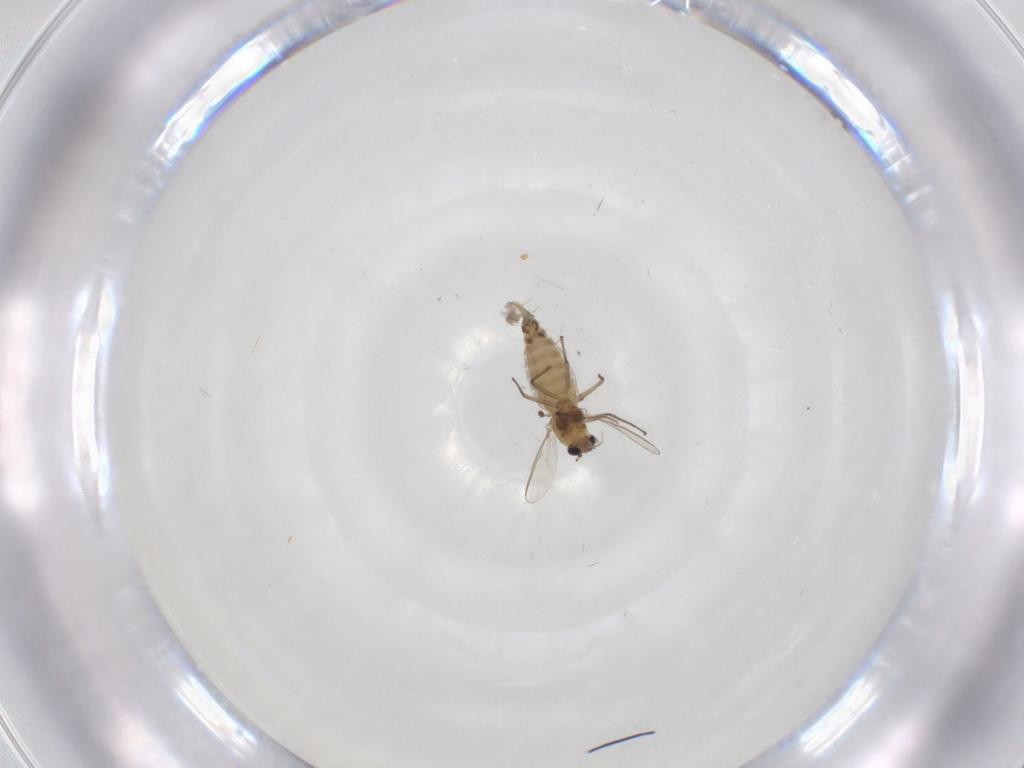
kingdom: Animalia
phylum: Arthropoda
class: Insecta
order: Diptera
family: Chironomidae
